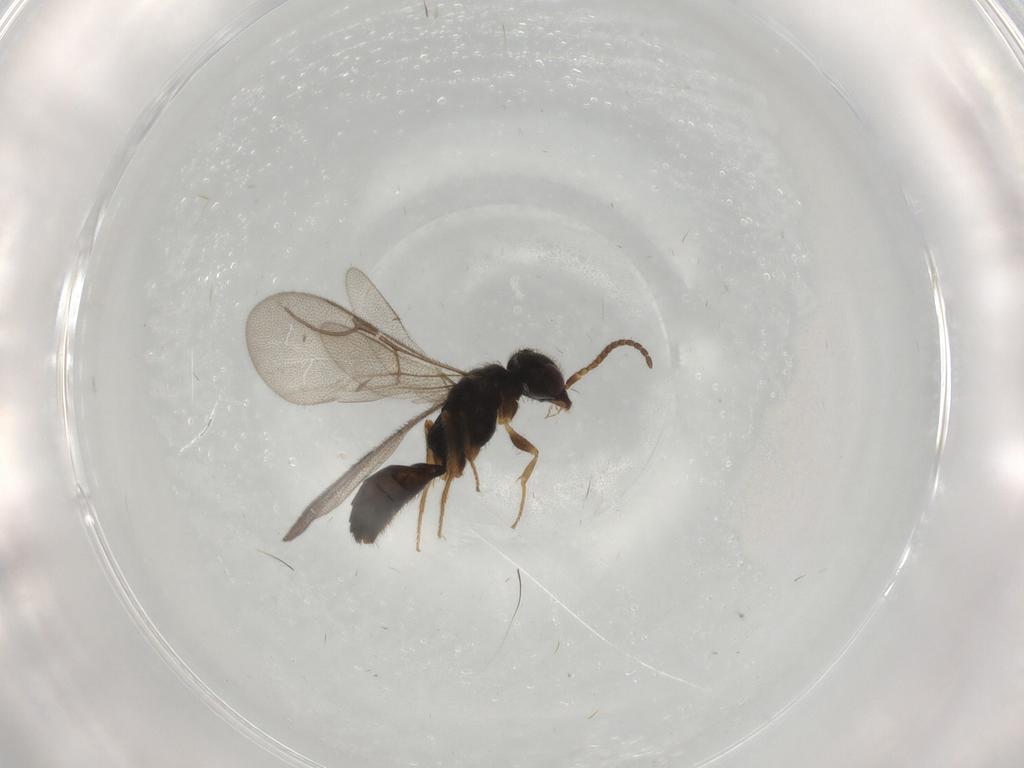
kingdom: Animalia
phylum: Arthropoda
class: Insecta
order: Hymenoptera
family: Bethylidae
